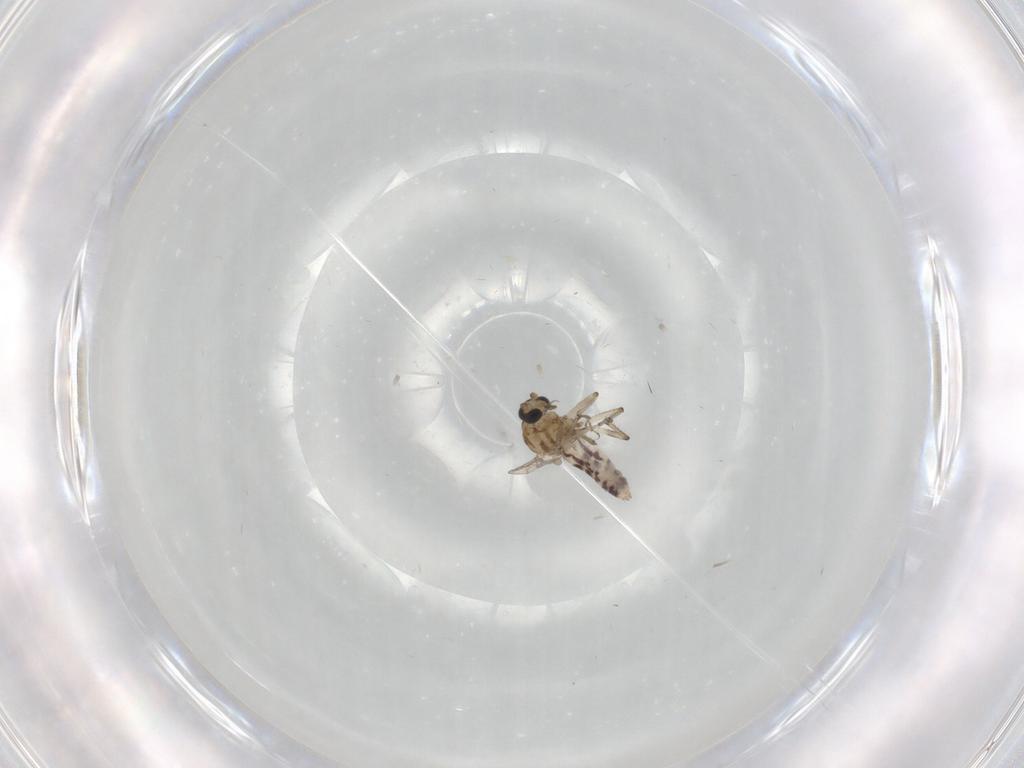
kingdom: Animalia
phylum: Arthropoda
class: Insecta
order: Diptera
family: Ceratopogonidae
